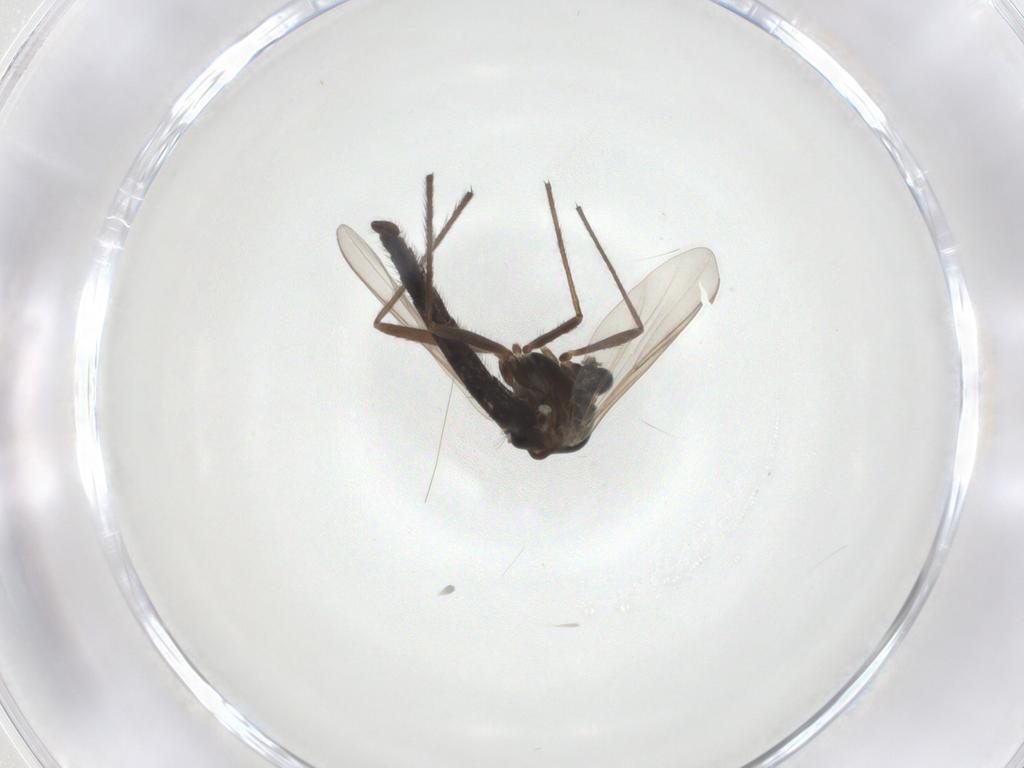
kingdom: Animalia
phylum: Arthropoda
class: Insecta
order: Diptera
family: Chironomidae
